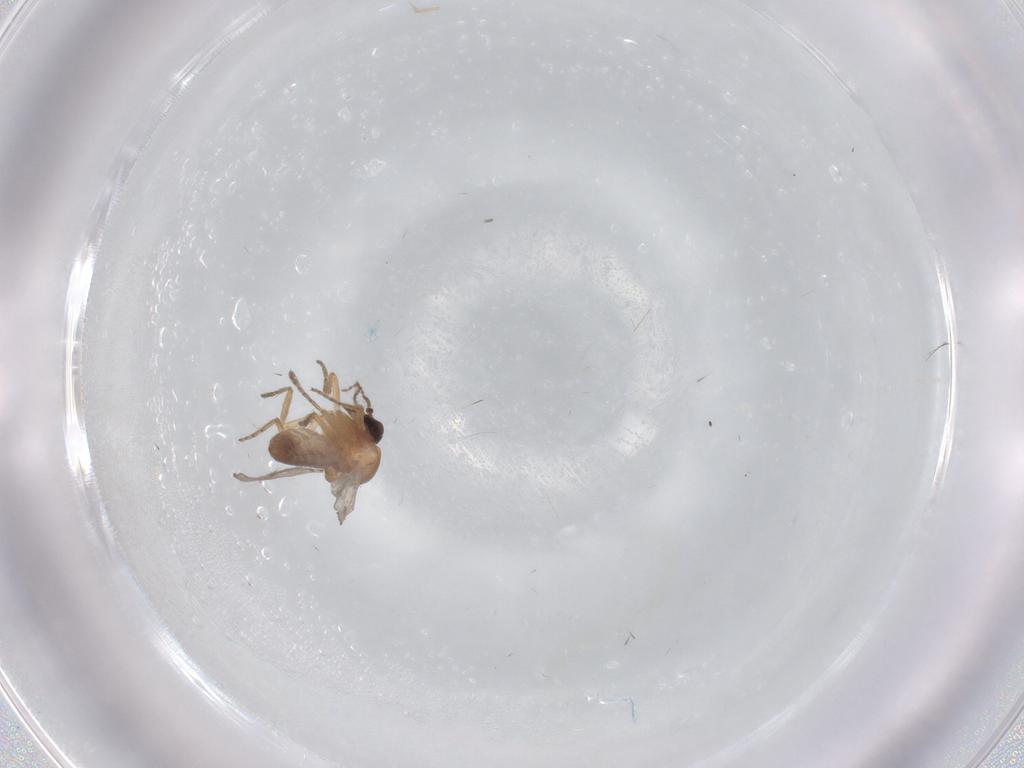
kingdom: Animalia
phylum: Arthropoda
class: Insecta
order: Diptera
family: Ceratopogonidae
